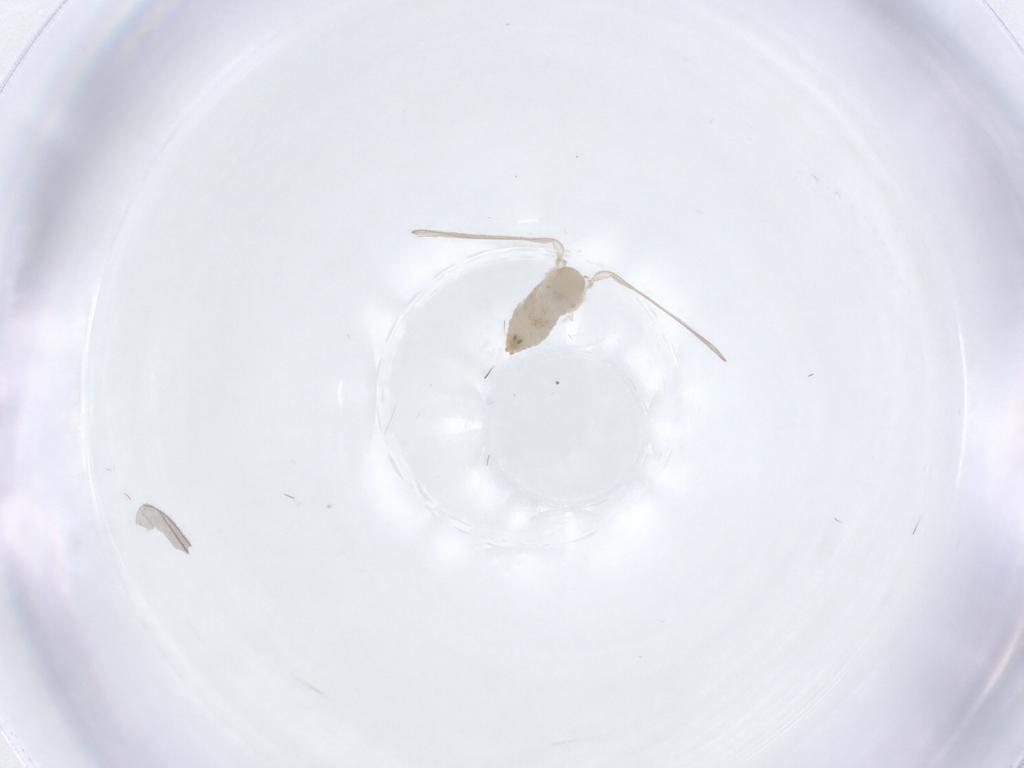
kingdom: Animalia
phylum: Arthropoda
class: Insecta
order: Diptera
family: Psychodidae
